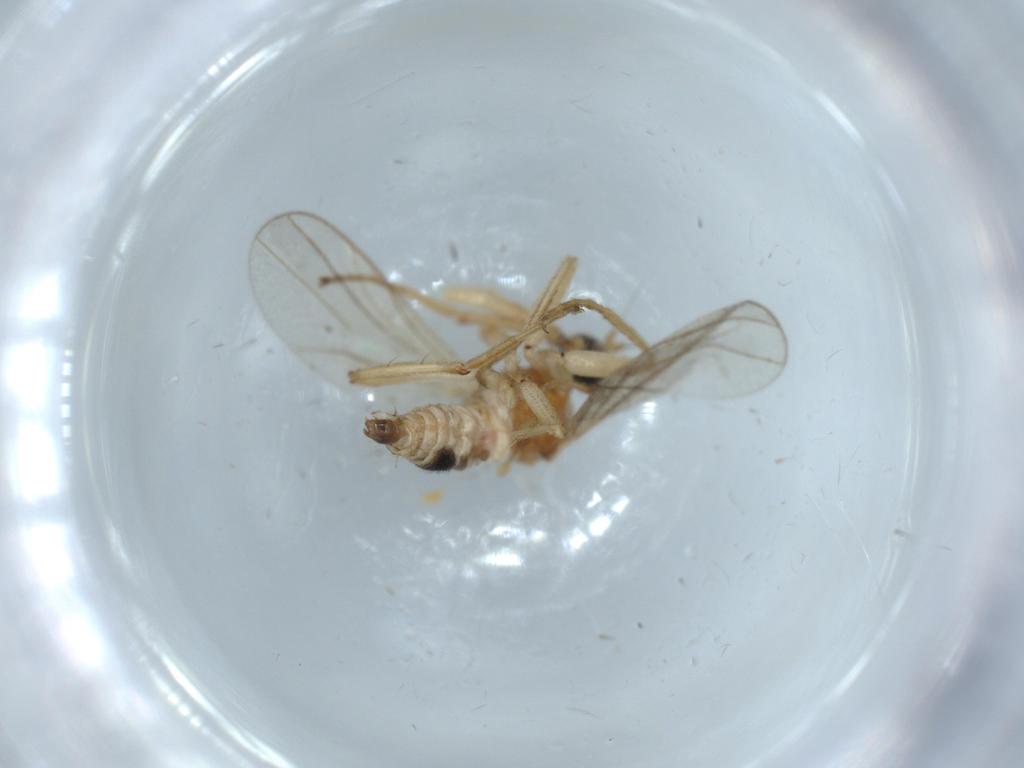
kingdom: Animalia
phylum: Arthropoda
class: Insecta
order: Diptera
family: Hybotidae
